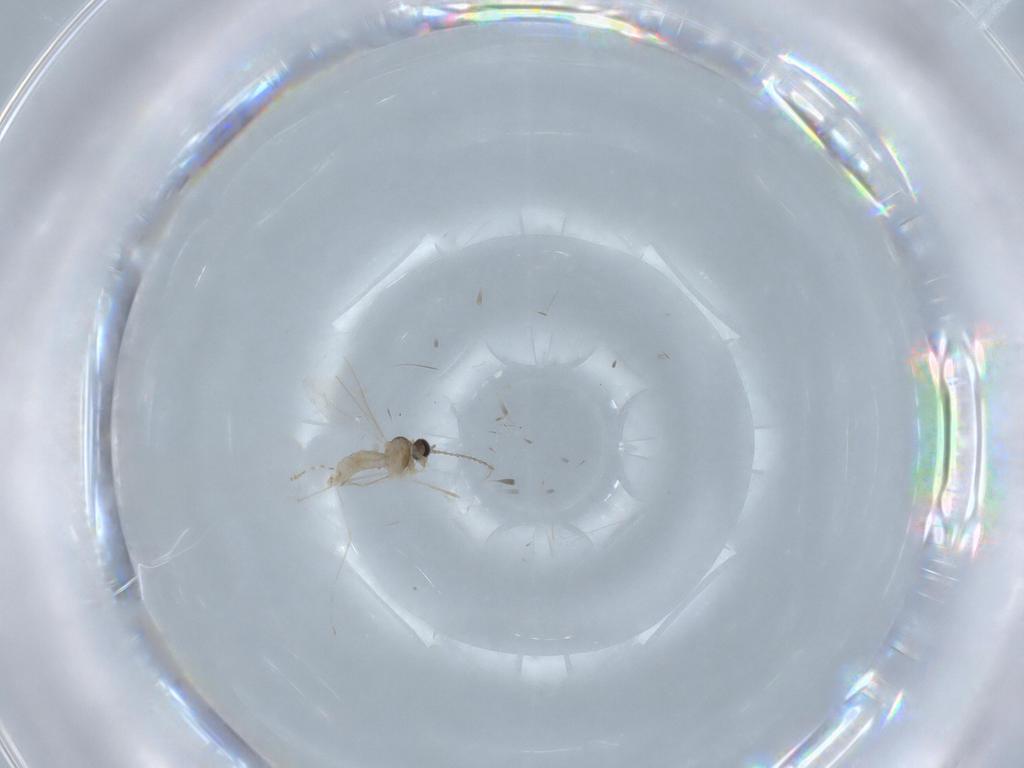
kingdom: Animalia
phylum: Arthropoda
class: Insecta
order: Diptera
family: Cecidomyiidae
